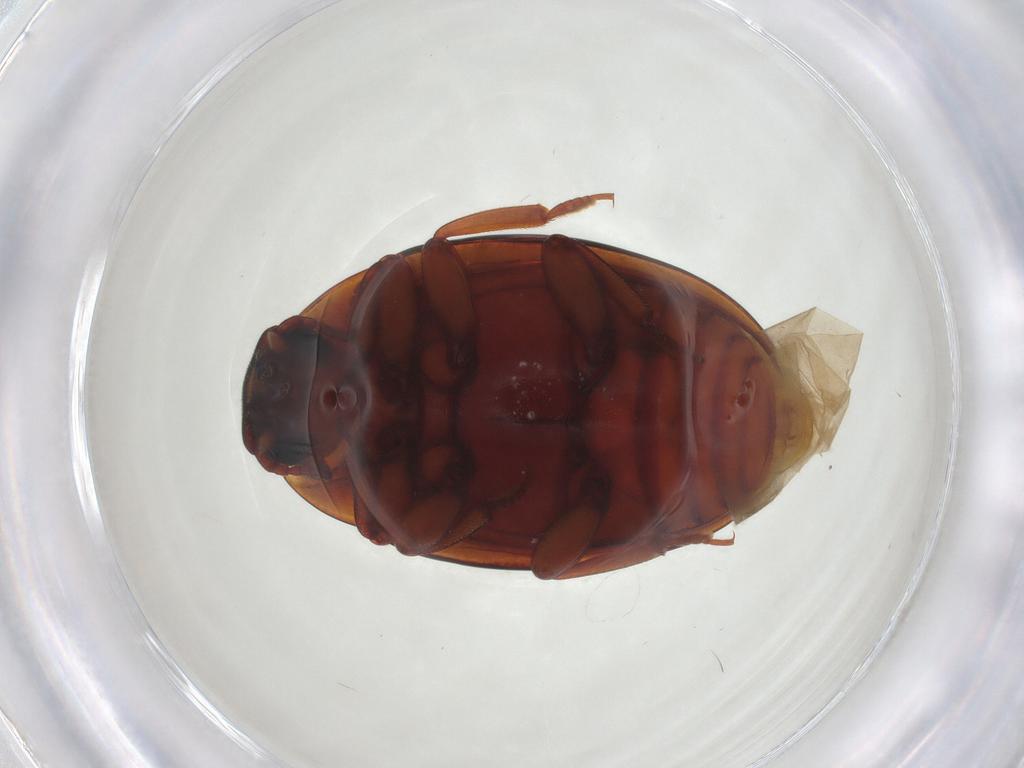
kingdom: Animalia
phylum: Arthropoda
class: Insecta
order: Coleoptera
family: Zopheridae
